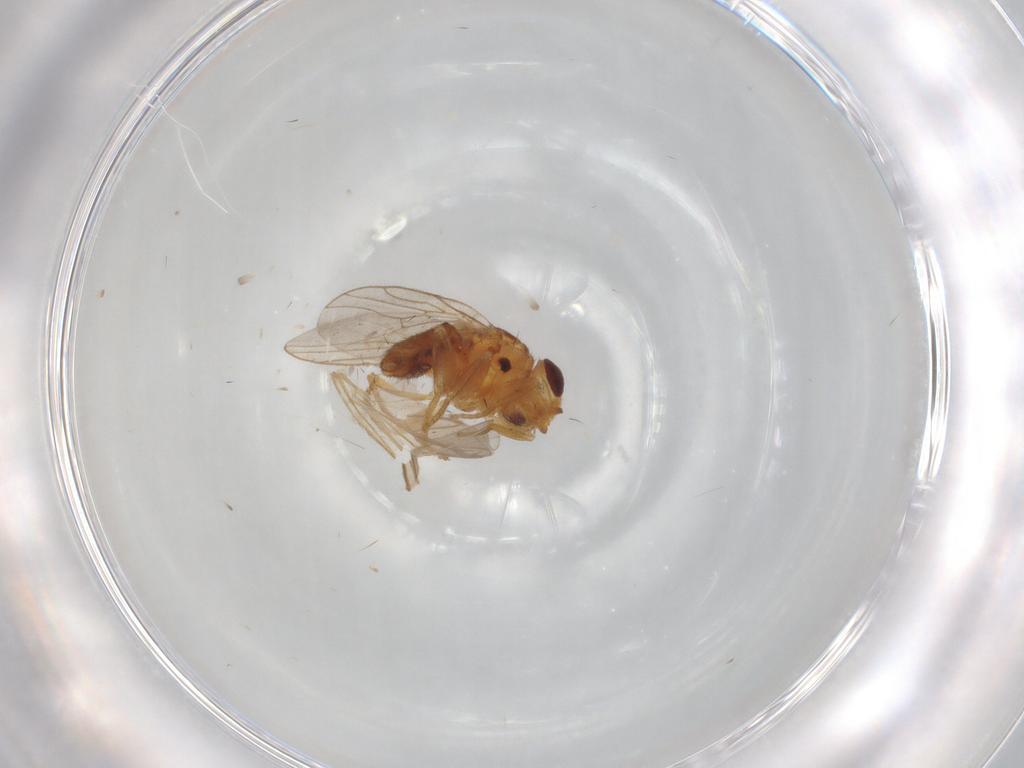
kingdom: Animalia
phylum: Arthropoda
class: Insecta
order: Diptera
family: Chloropidae
